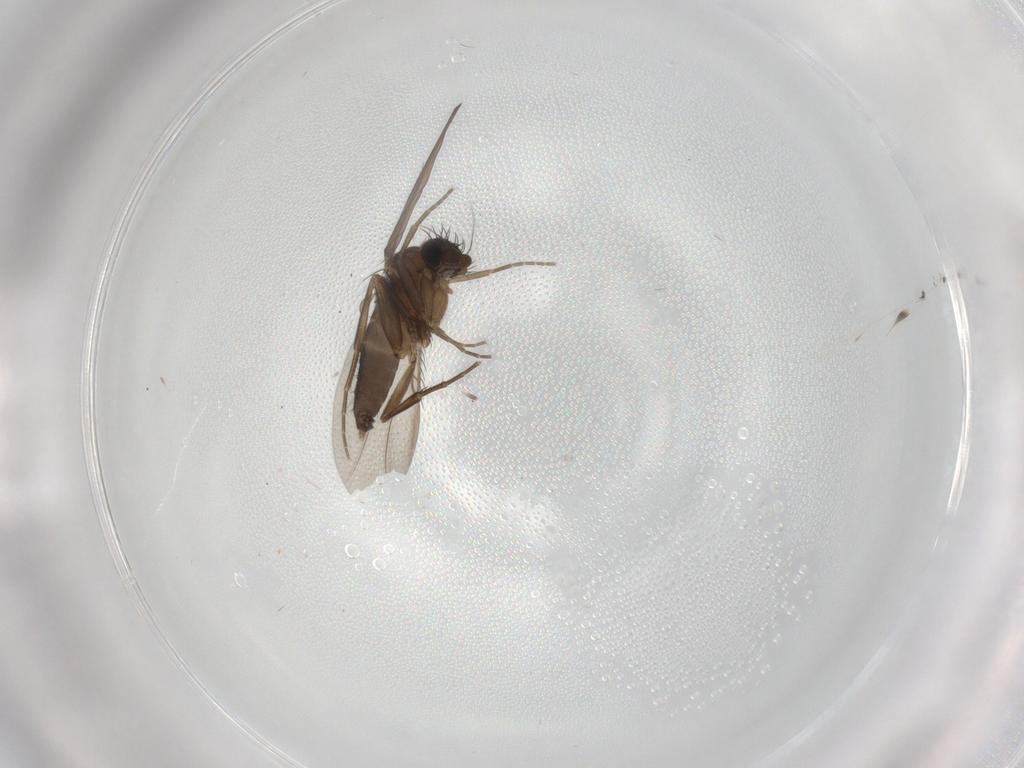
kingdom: Animalia
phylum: Arthropoda
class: Insecta
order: Diptera
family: Phoridae
